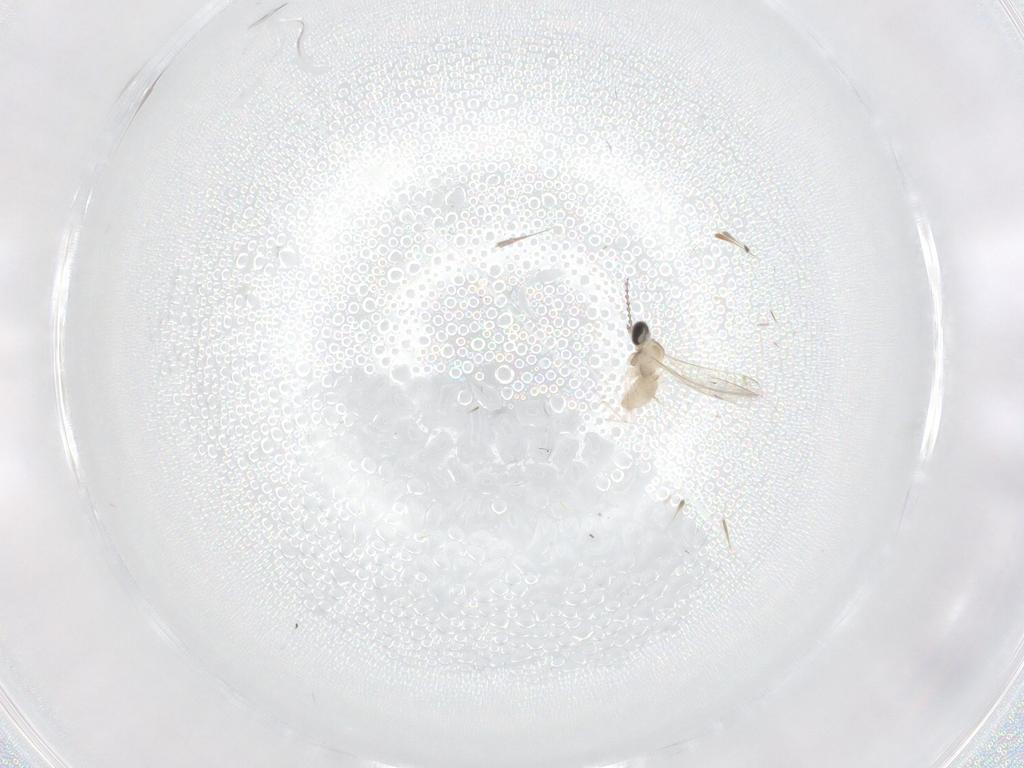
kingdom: Animalia
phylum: Arthropoda
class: Insecta
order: Diptera
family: Cecidomyiidae
